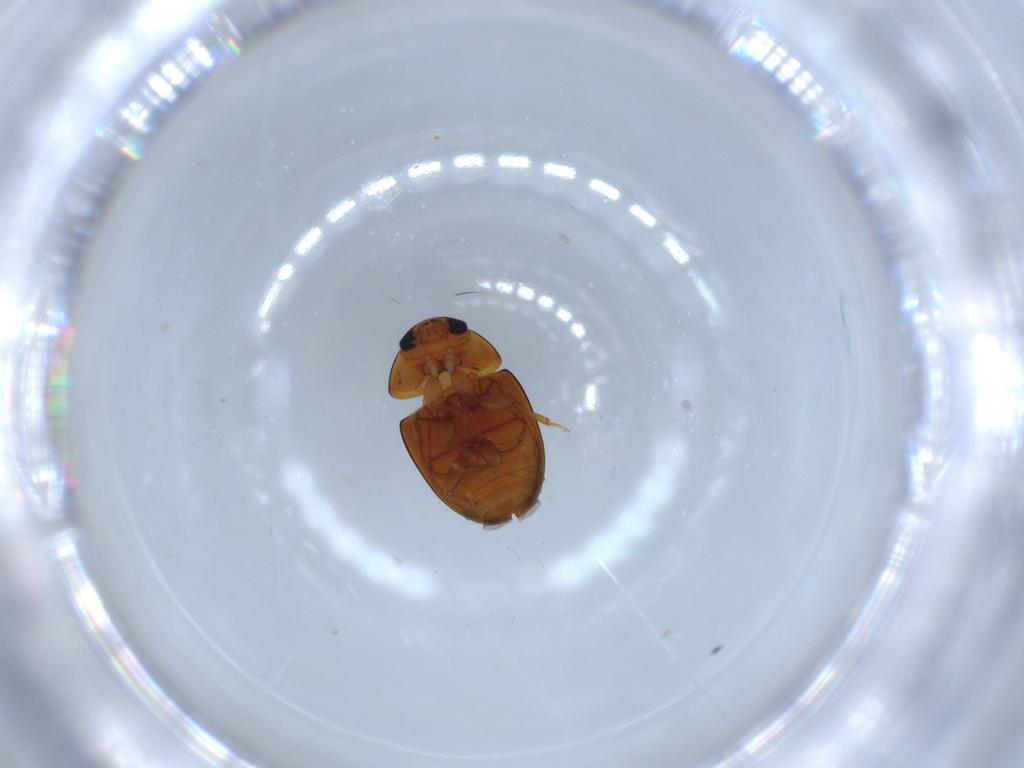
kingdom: Animalia
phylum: Arthropoda
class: Insecta
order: Coleoptera
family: Phalacridae
